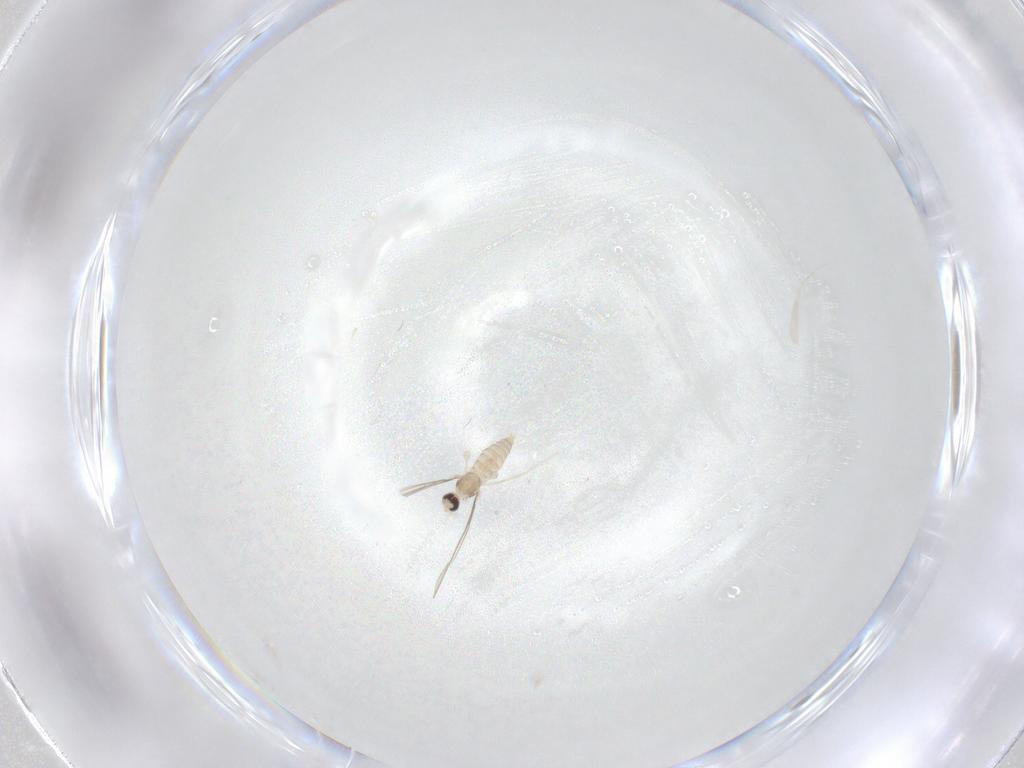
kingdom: Animalia
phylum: Arthropoda
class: Insecta
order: Diptera
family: Cecidomyiidae
